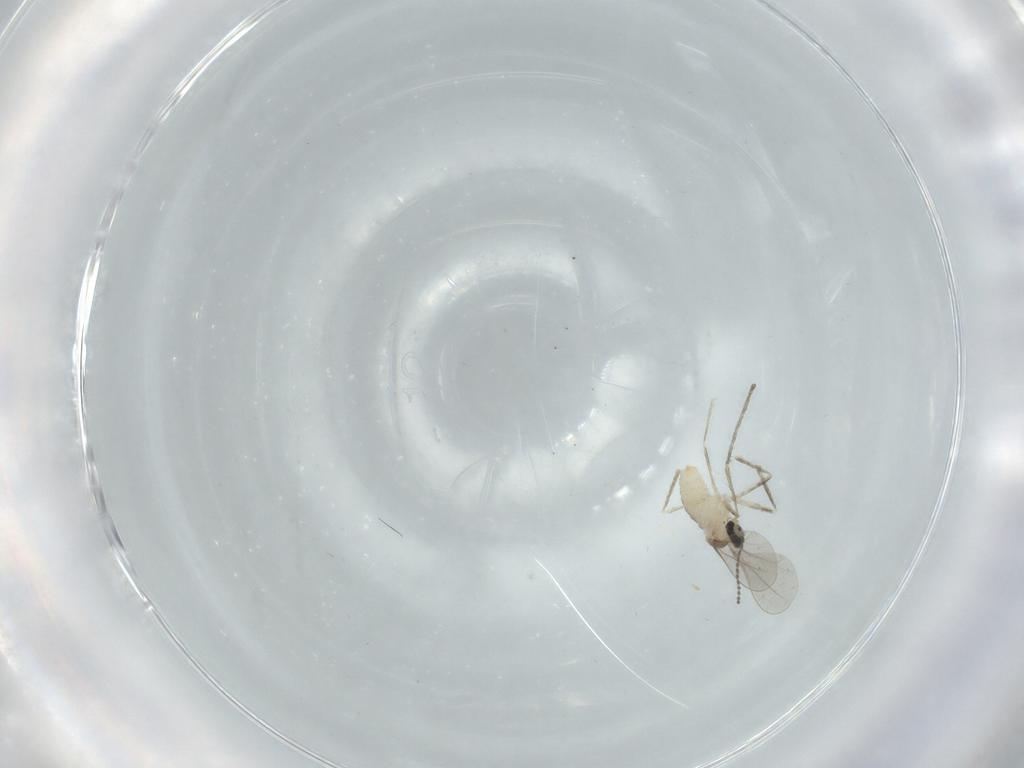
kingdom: Animalia
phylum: Arthropoda
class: Insecta
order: Diptera
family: Cecidomyiidae
